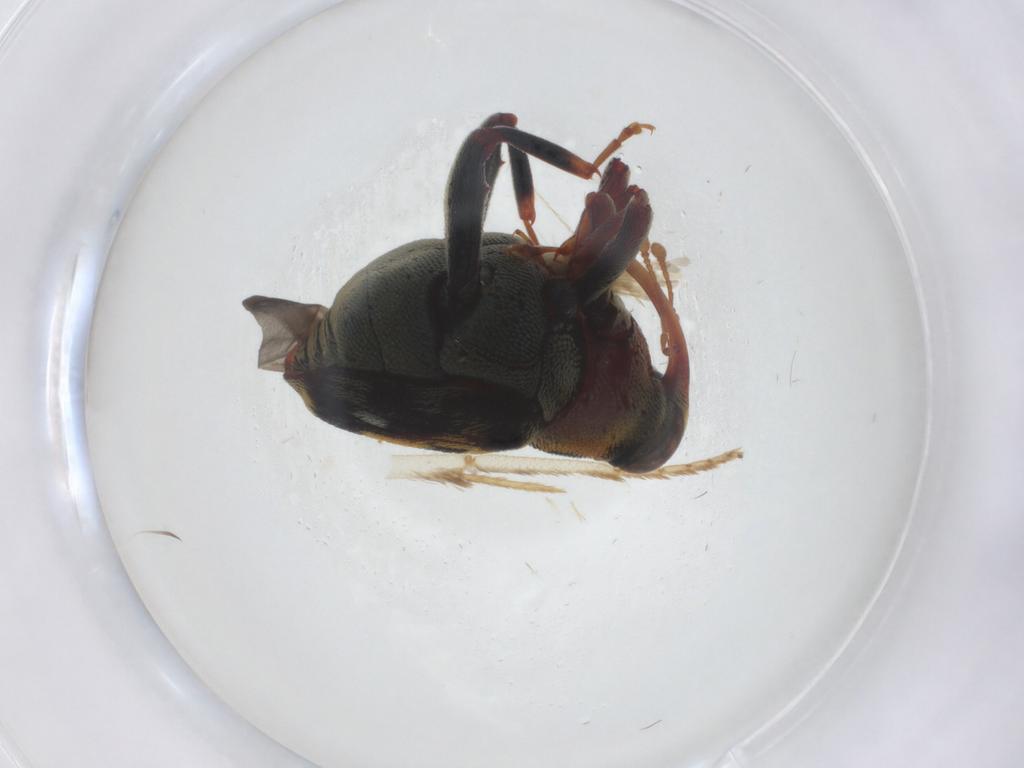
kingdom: Animalia
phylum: Arthropoda
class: Insecta
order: Coleoptera
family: Curculionidae
